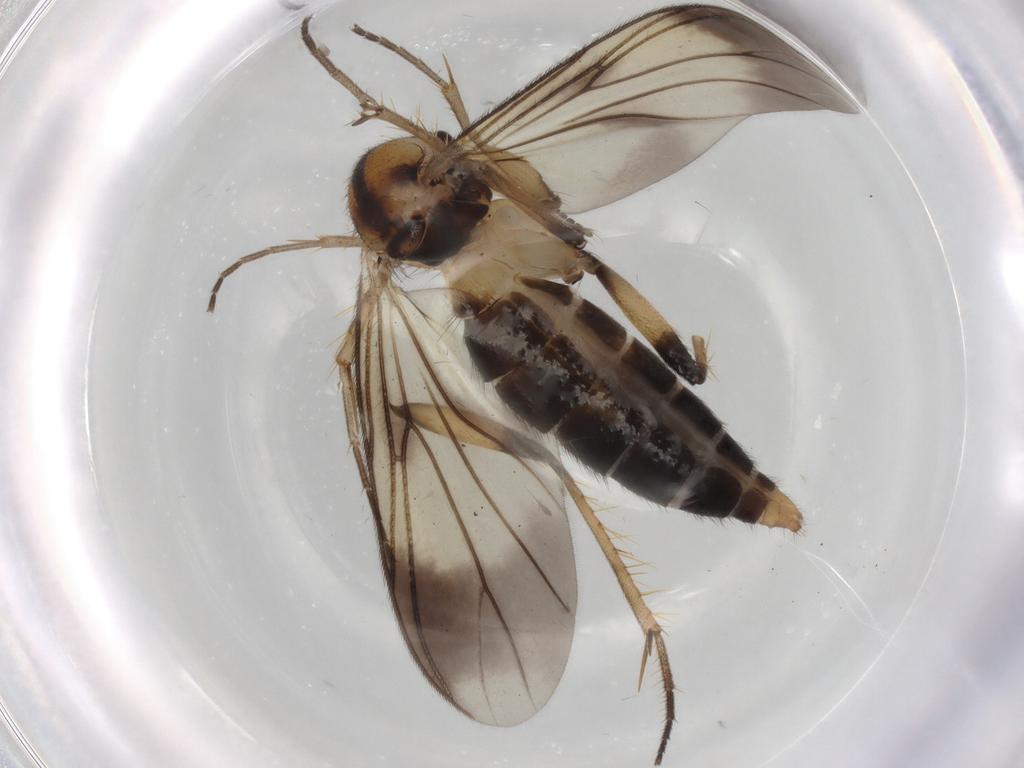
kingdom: Animalia
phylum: Arthropoda
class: Insecta
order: Diptera
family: Mycetophilidae
